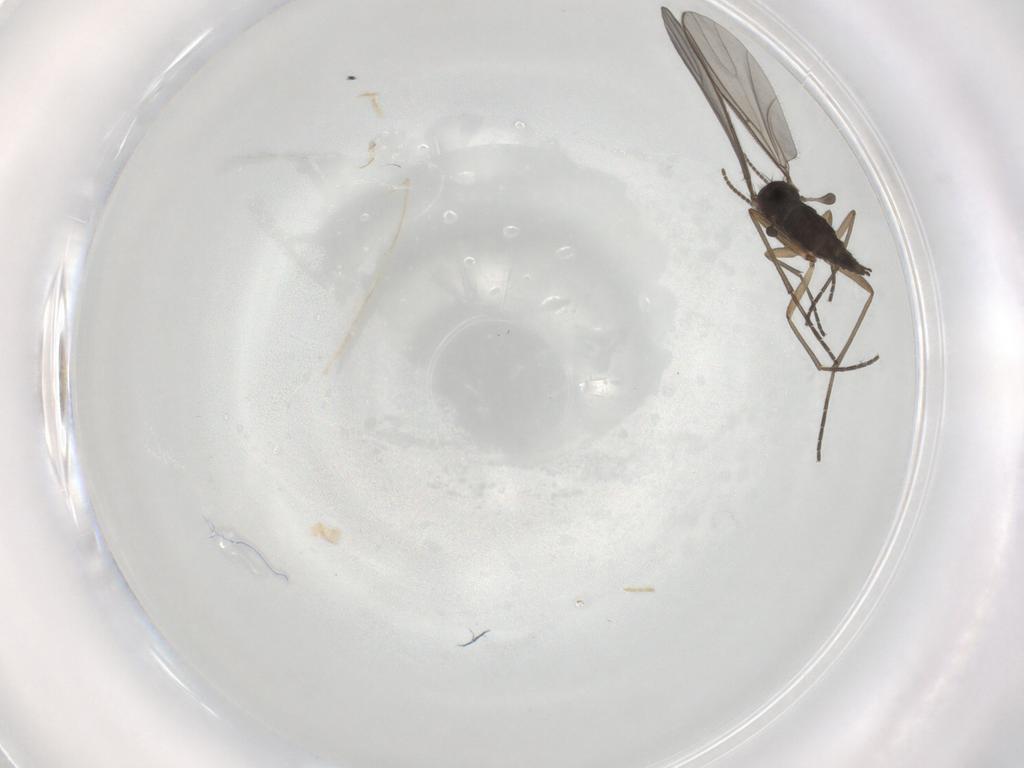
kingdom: Animalia
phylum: Arthropoda
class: Insecta
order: Diptera
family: Sciaridae
